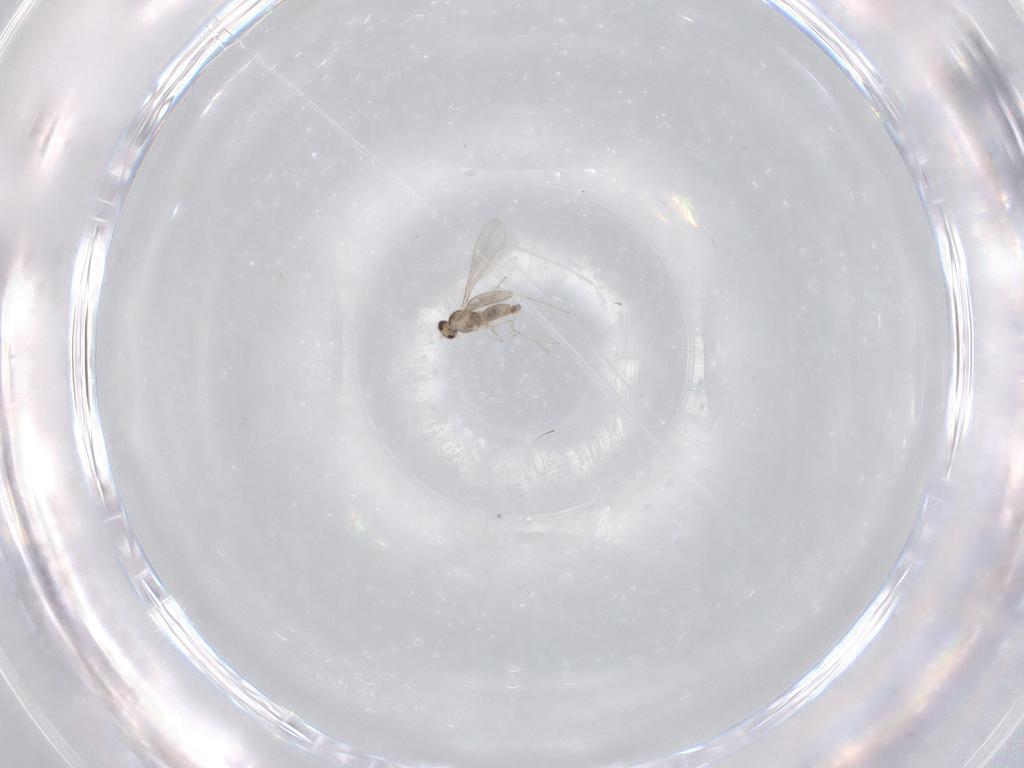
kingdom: Animalia
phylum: Arthropoda
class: Insecta
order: Diptera
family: Cecidomyiidae
